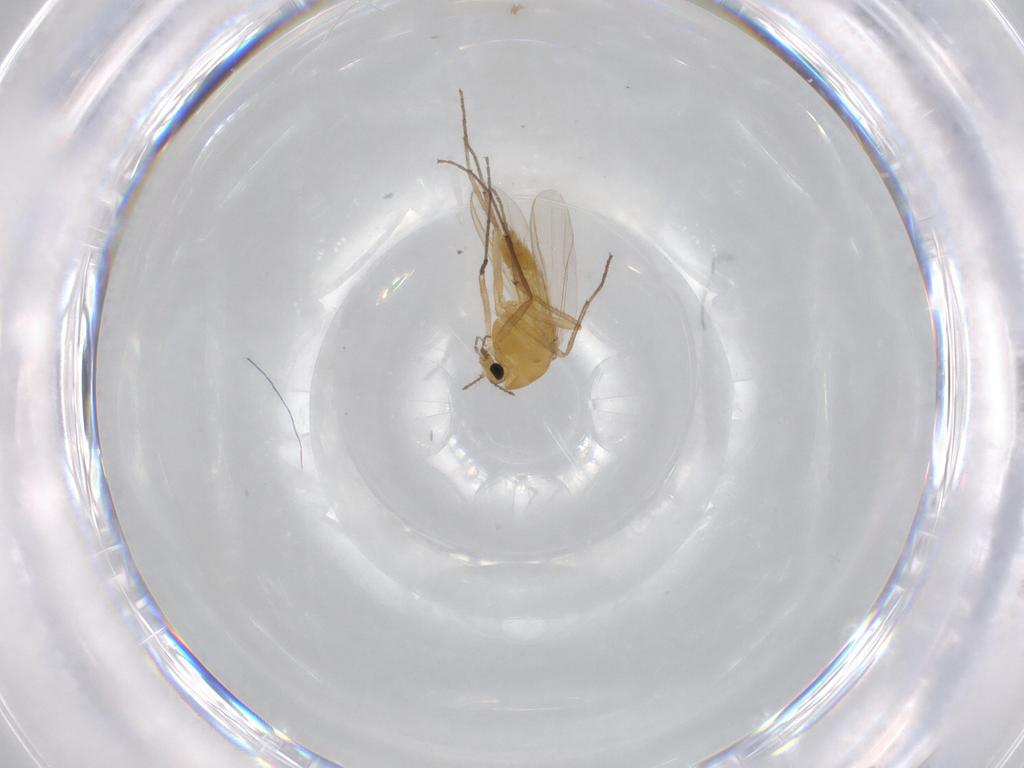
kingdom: Animalia
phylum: Arthropoda
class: Insecta
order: Diptera
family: Chironomidae
